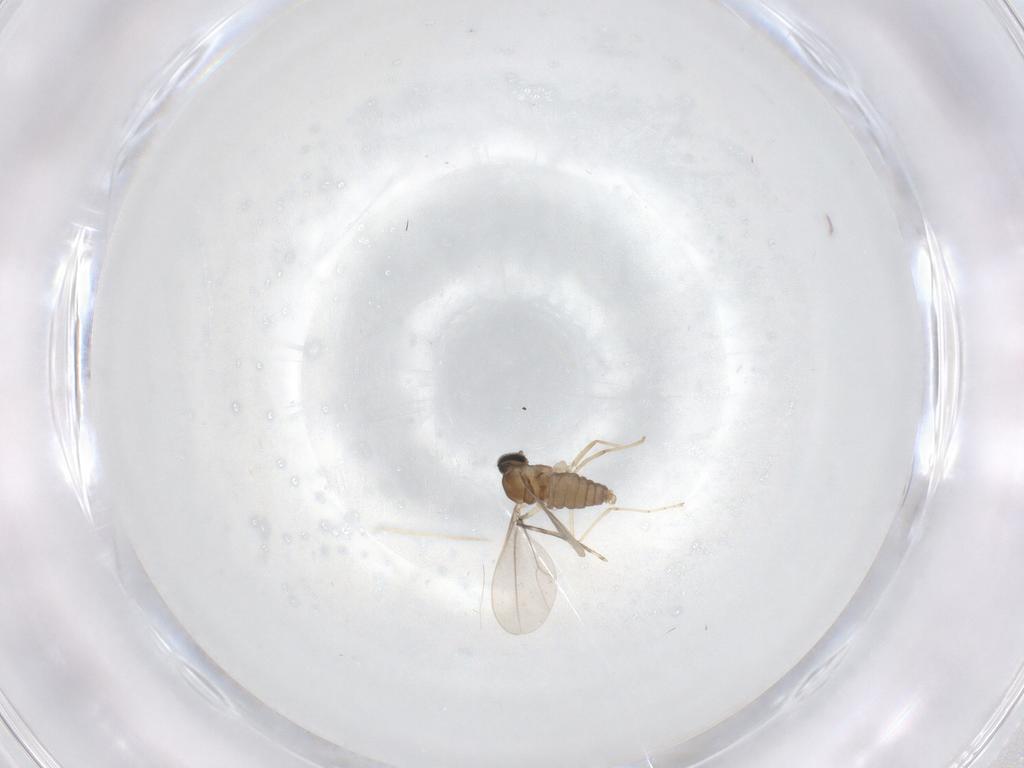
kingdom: Animalia
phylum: Arthropoda
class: Insecta
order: Diptera
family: Cecidomyiidae
